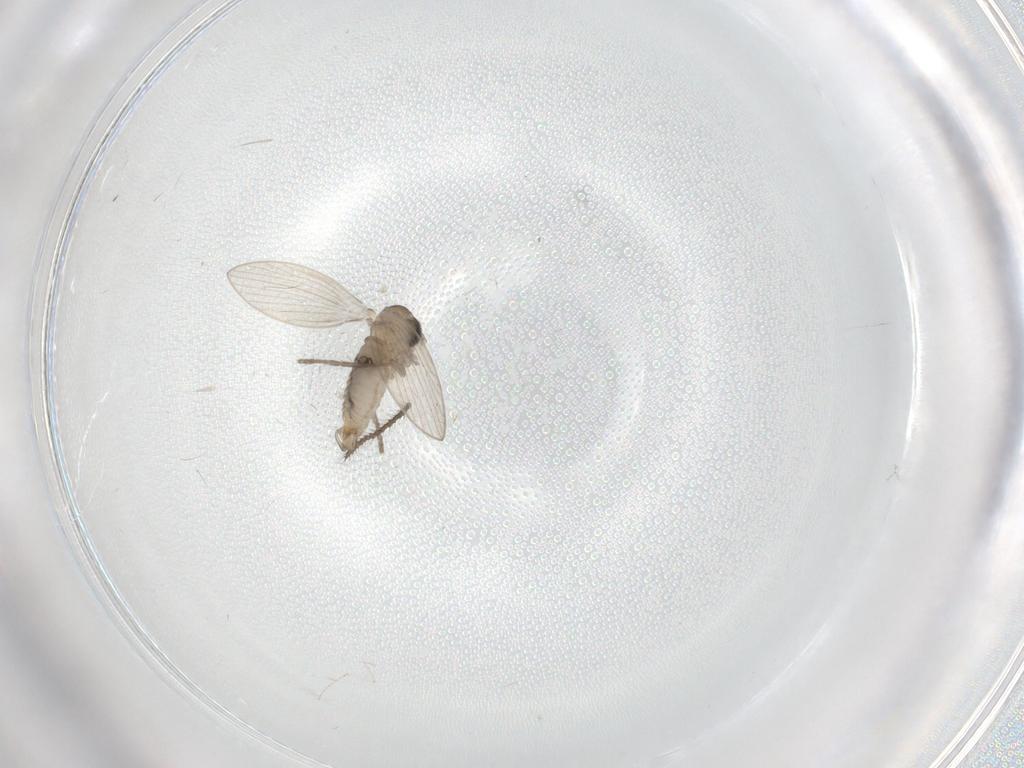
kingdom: Animalia
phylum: Arthropoda
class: Insecta
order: Diptera
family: Psychodidae
